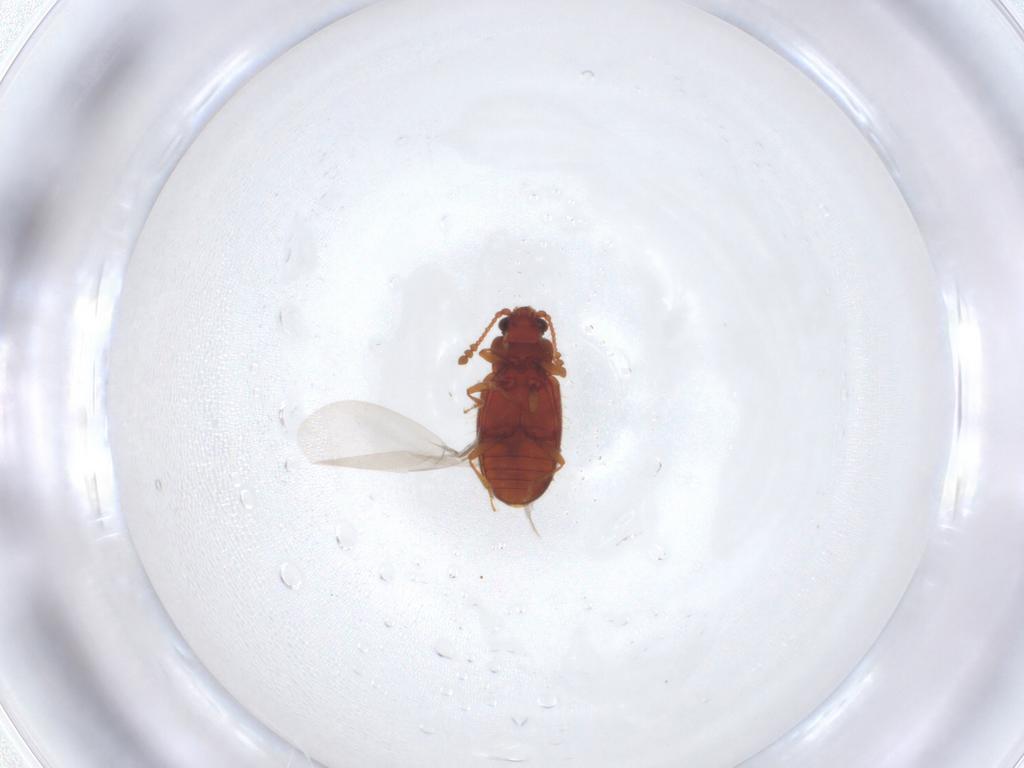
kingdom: Animalia
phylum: Arthropoda
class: Insecta
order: Coleoptera
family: Cryptophagidae
